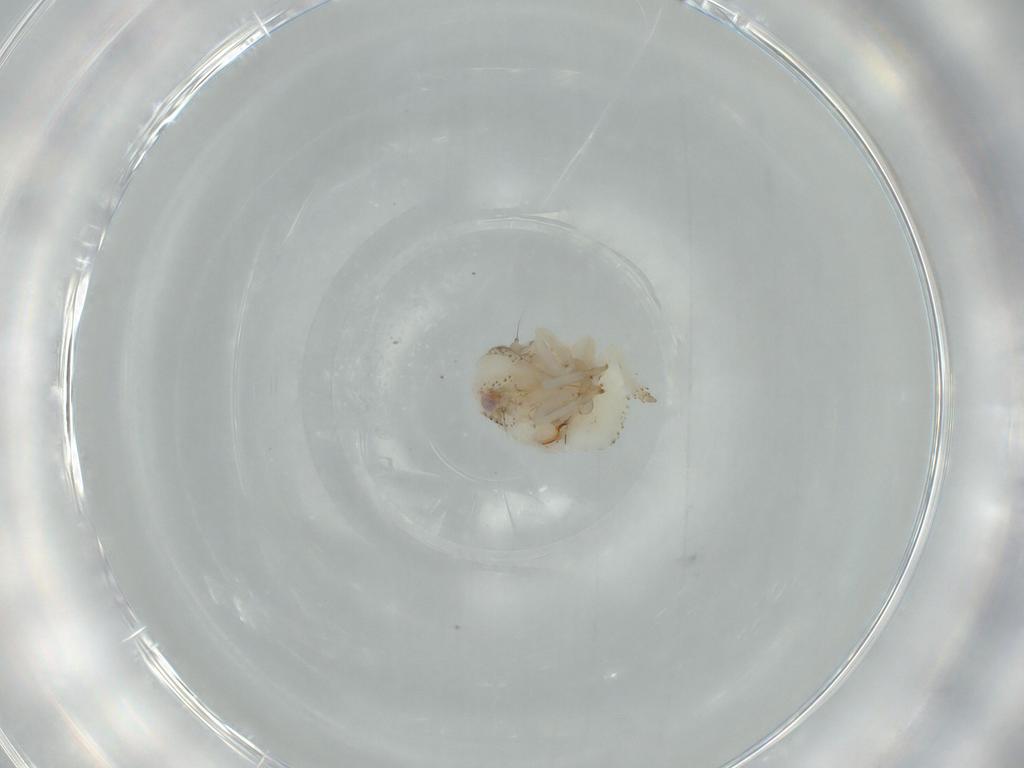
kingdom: Animalia
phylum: Arthropoda
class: Insecta
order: Hemiptera
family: Acanaloniidae
